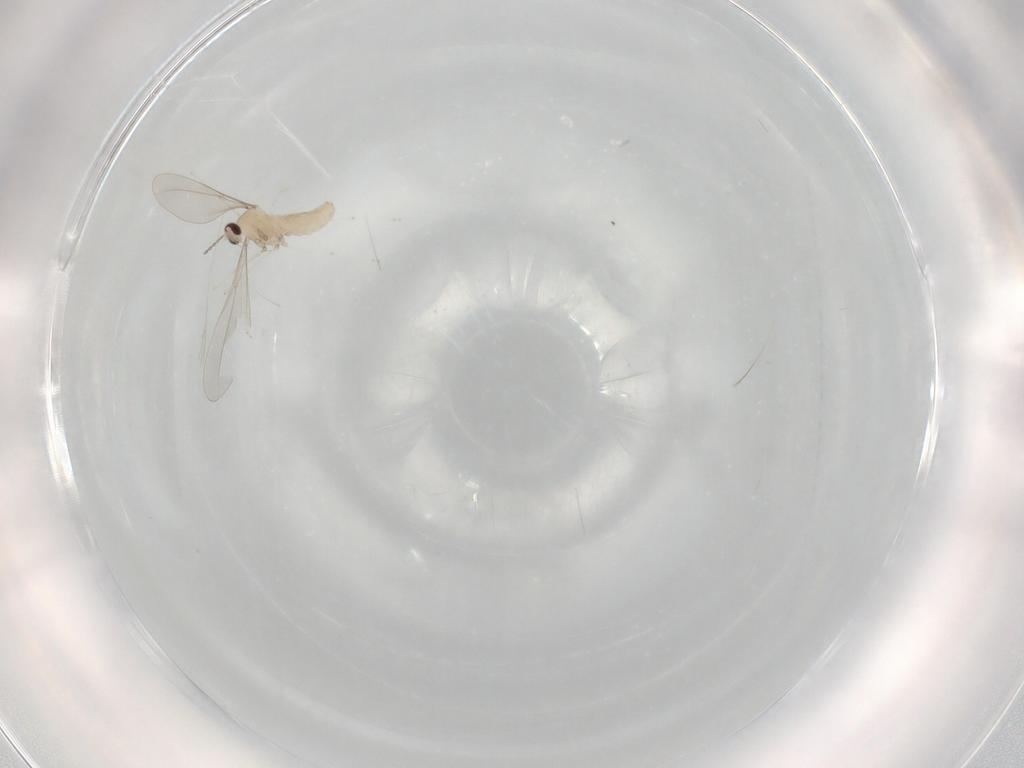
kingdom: Animalia
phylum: Arthropoda
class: Insecta
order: Diptera
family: Cecidomyiidae
